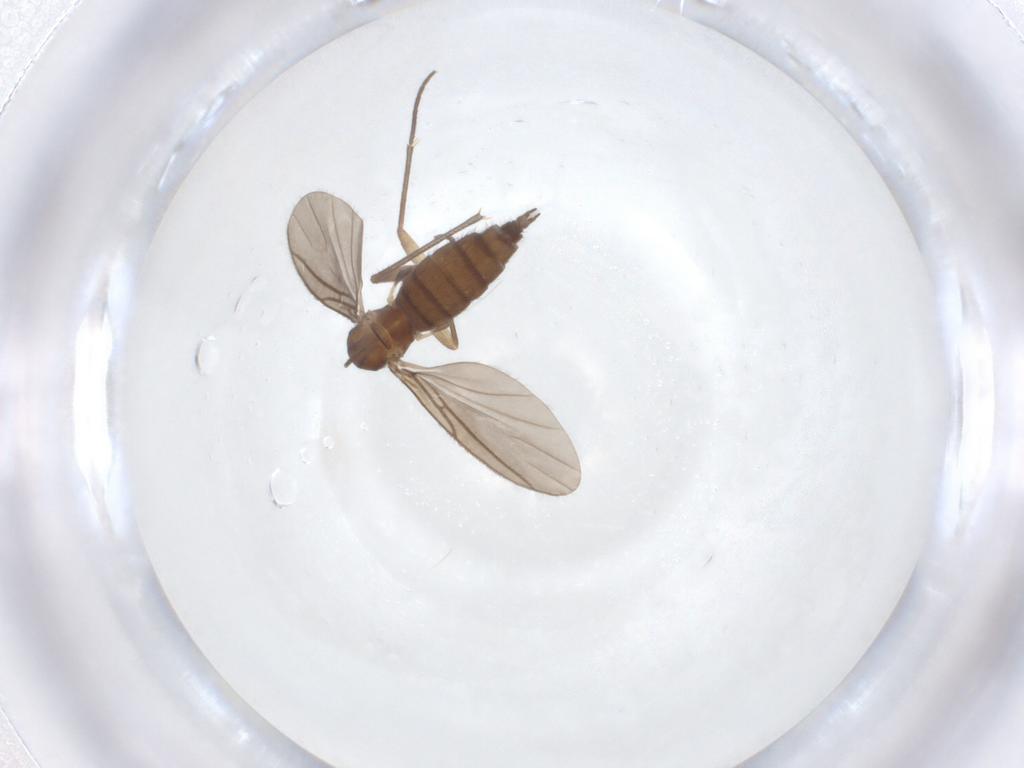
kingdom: Animalia
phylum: Arthropoda
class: Insecta
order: Diptera
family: Sciaridae
